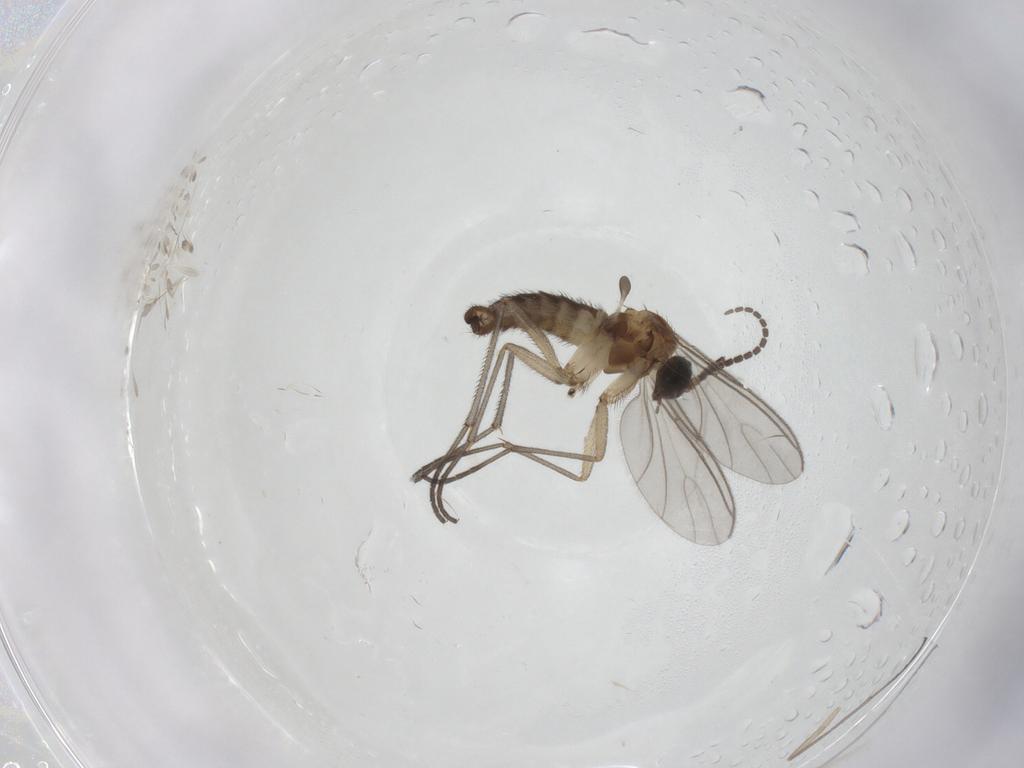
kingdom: Animalia
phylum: Arthropoda
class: Insecta
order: Diptera
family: Sciaridae
